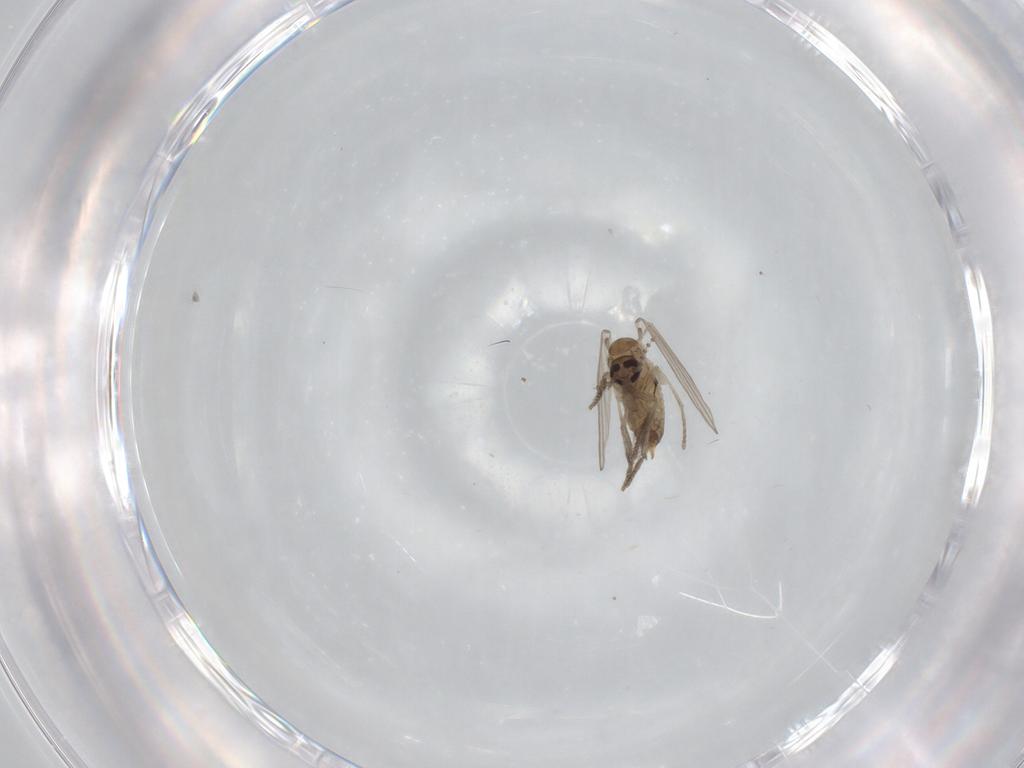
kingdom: Animalia
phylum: Arthropoda
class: Insecta
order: Diptera
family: Psychodidae
